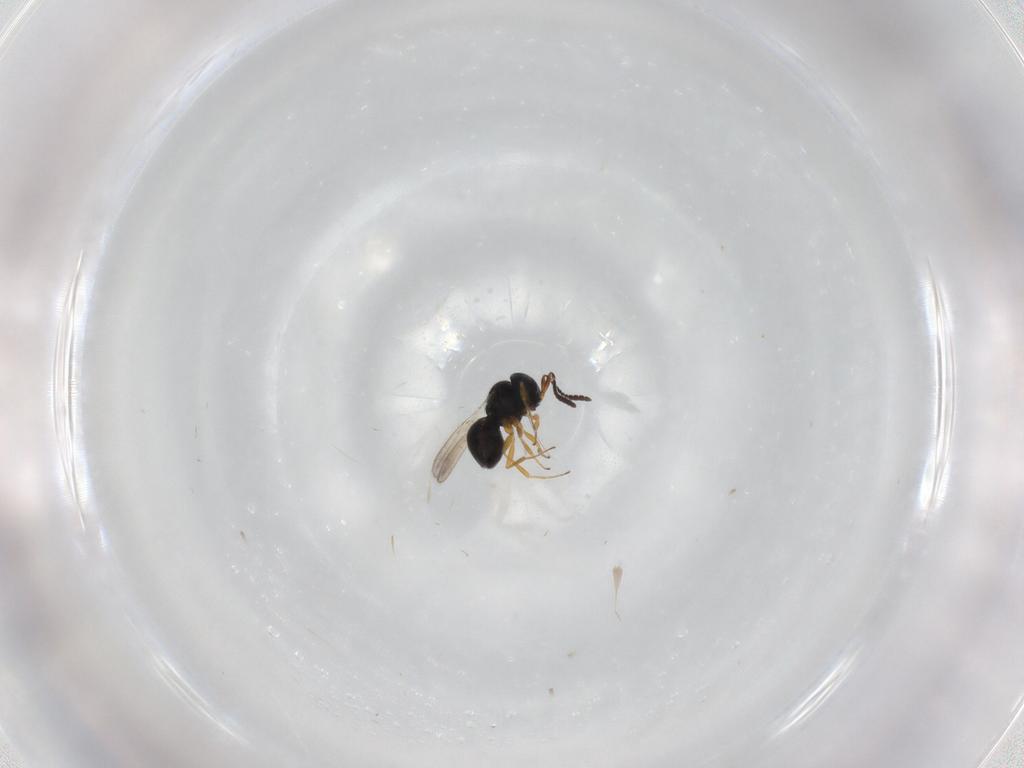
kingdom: Animalia
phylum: Arthropoda
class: Insecta
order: Hymenoptera
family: Scelionidae
